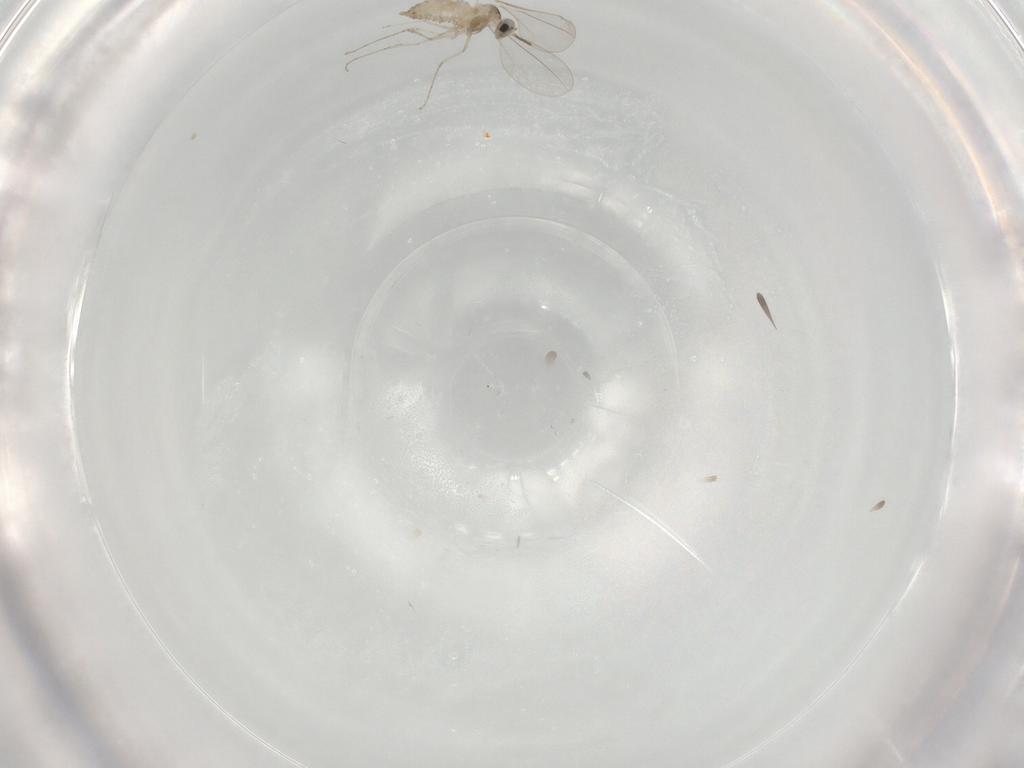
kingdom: Animalia
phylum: Arthropoda
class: Insecta
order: Diptera
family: Cecidomyiidae
